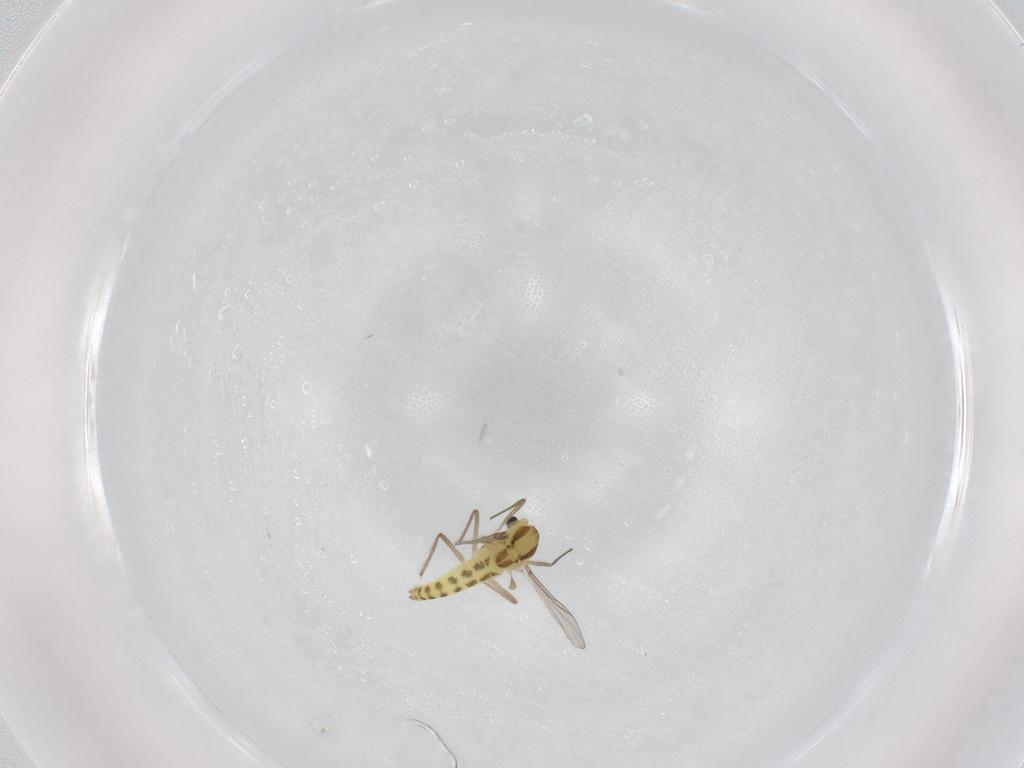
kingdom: Animalia
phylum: Arthropoda
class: Insecta
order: Diptera
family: Chironomidae
